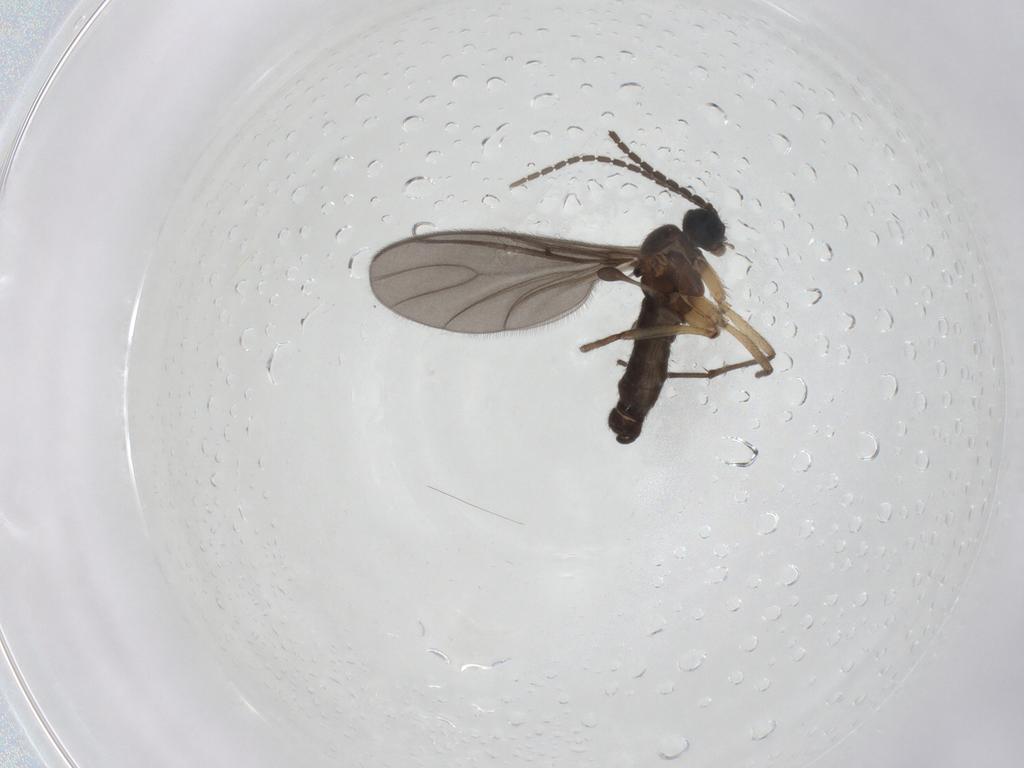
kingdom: Animalia
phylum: Arthropoda
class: Insecta
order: Diptera
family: Sciaridae
